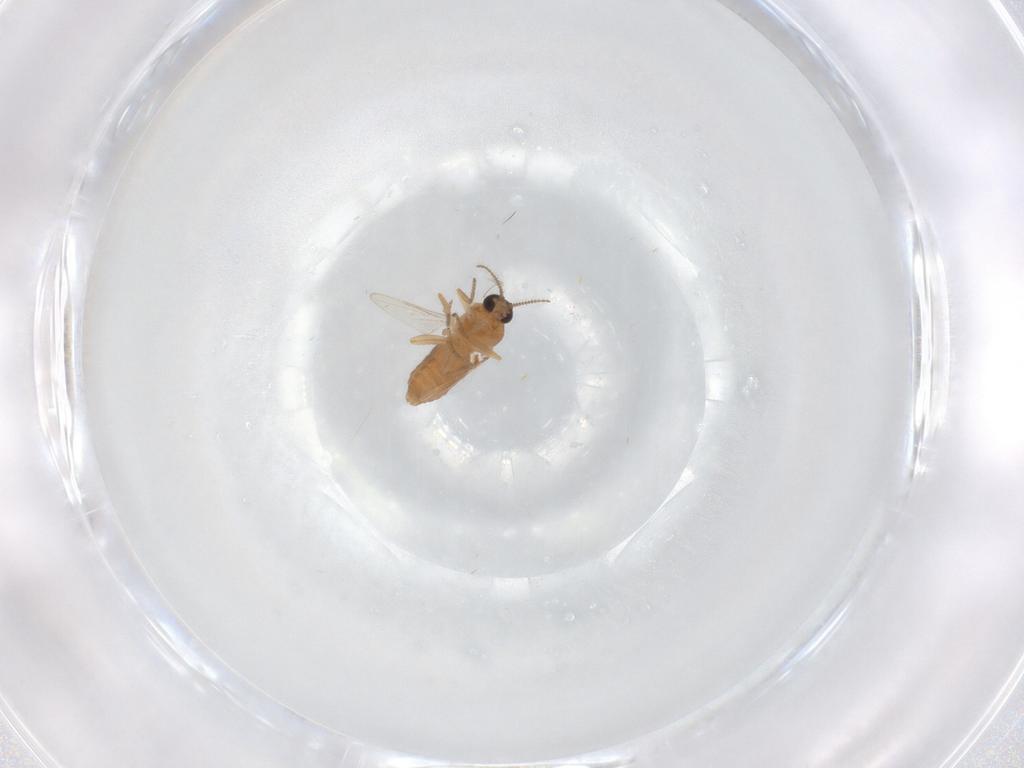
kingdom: Animalia
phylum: Arthropoda
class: Insecta
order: Diptera
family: Ceratopogonidae
